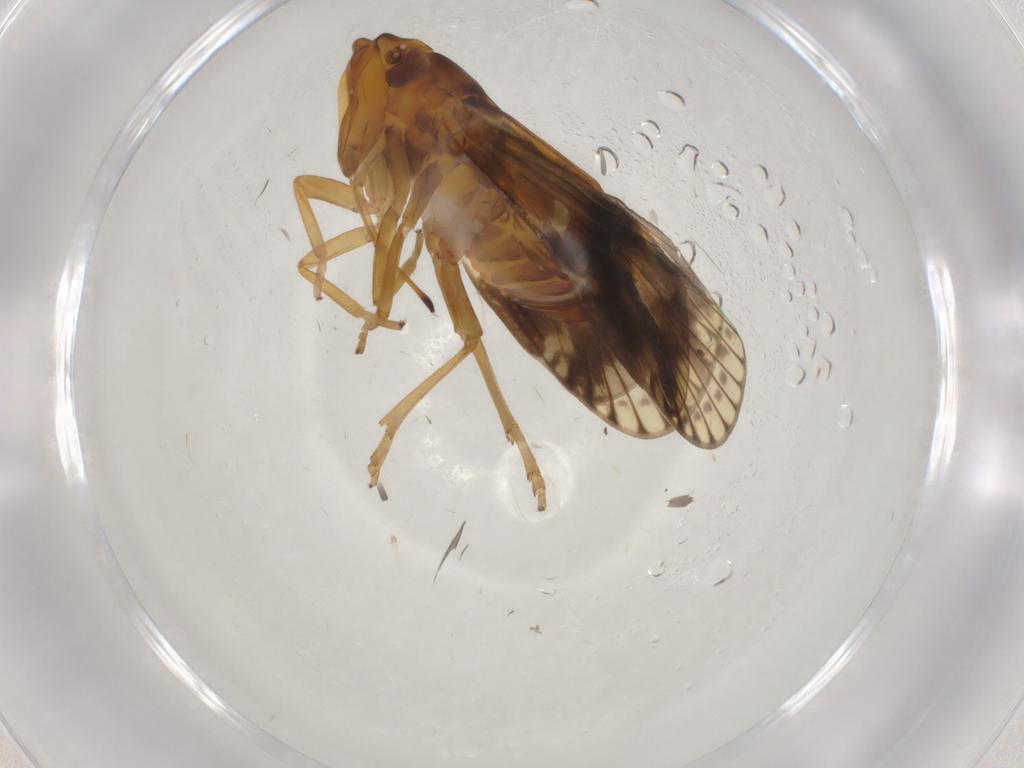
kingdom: Animalia
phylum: Arthropoda
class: Insecta
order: Hemiptera
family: Cixiidae
